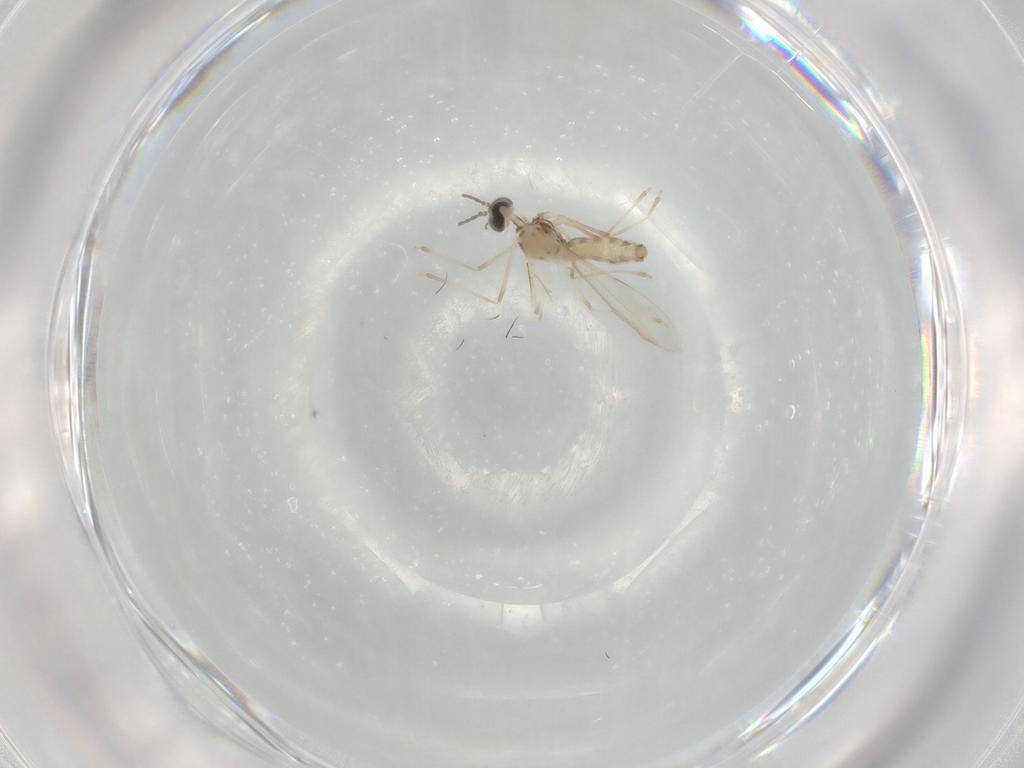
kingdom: Animalia
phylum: Arthropoda
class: Insecta
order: Diptera
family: Cecidomyiidae
